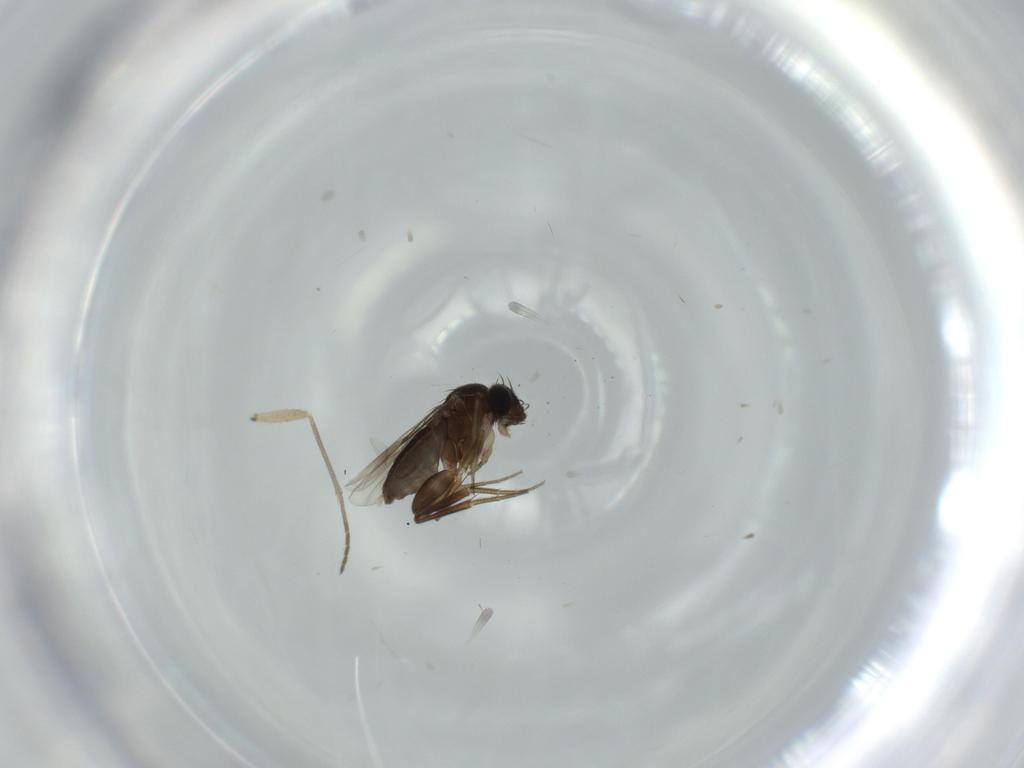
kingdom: Animalia
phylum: Arthropoda
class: Insecta
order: Diptera
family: Phoridae
